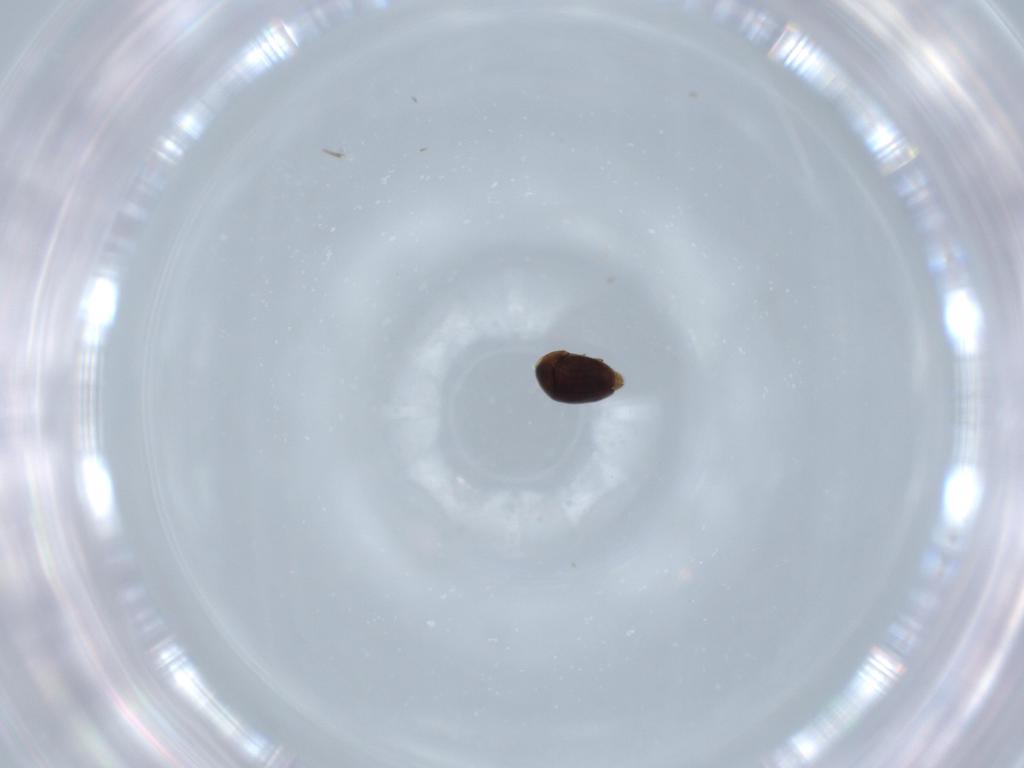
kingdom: Animalia
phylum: Arthropoda
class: Insecta
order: Coleoptera
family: Corylophidae
